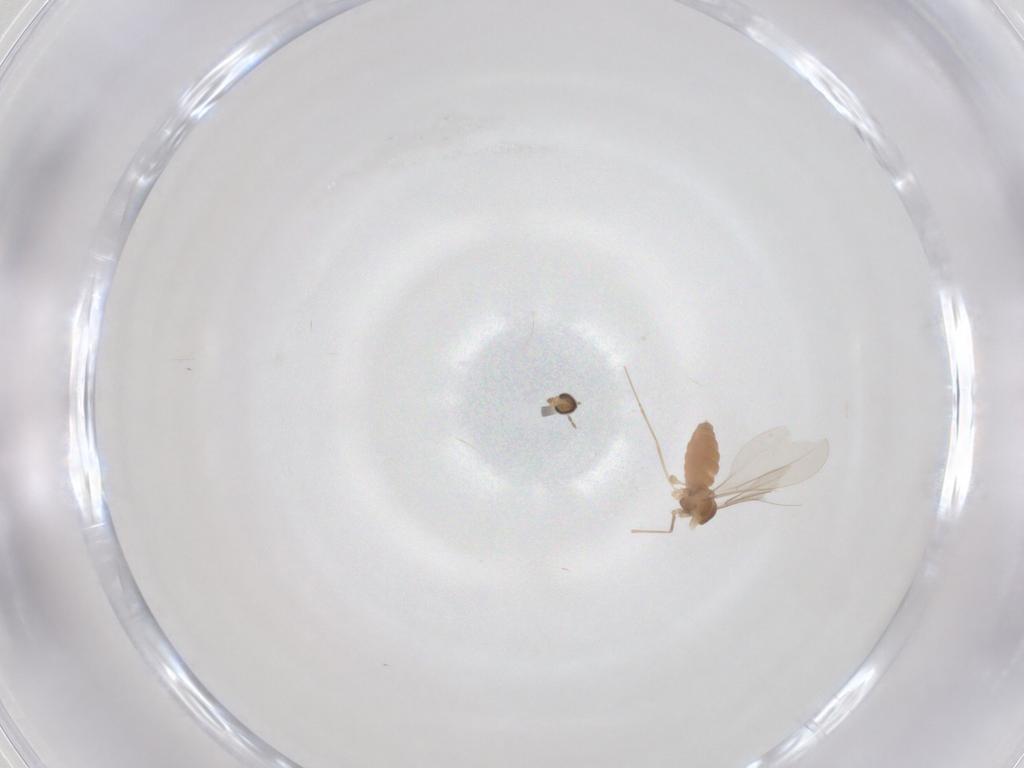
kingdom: Animalia
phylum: Arthropoda
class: Insecta
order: Diptera
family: Cecidomyiidae
